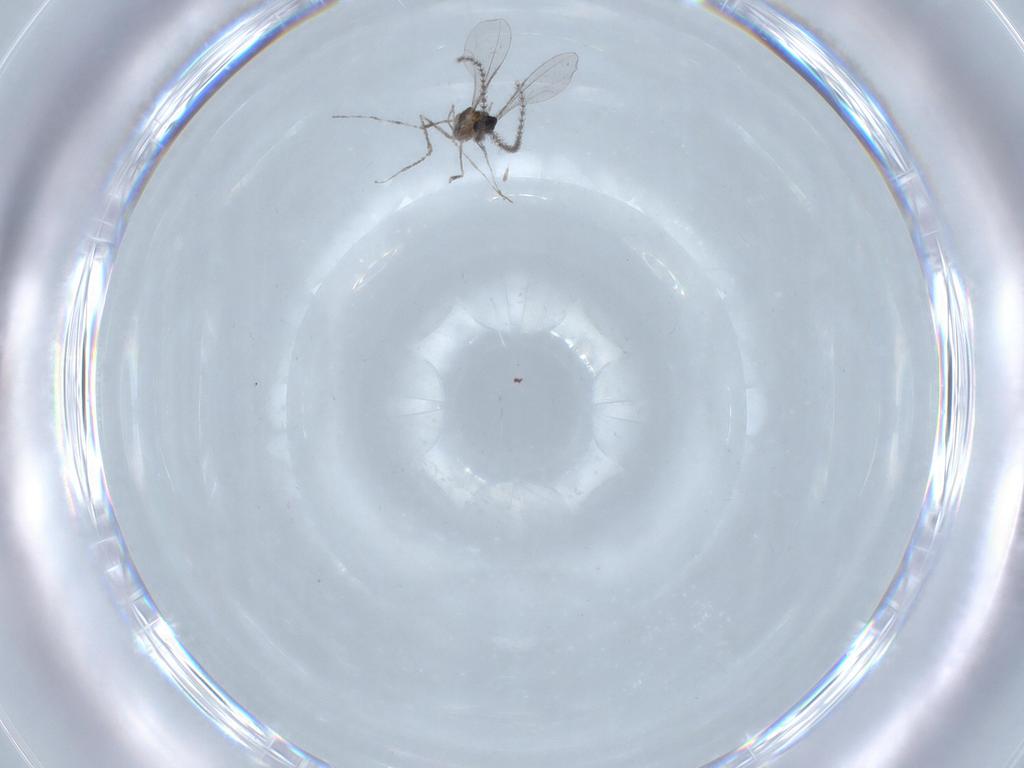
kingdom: Animalia
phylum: Arthropoda
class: Insecta
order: Diptera
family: Cecidomyiidae
